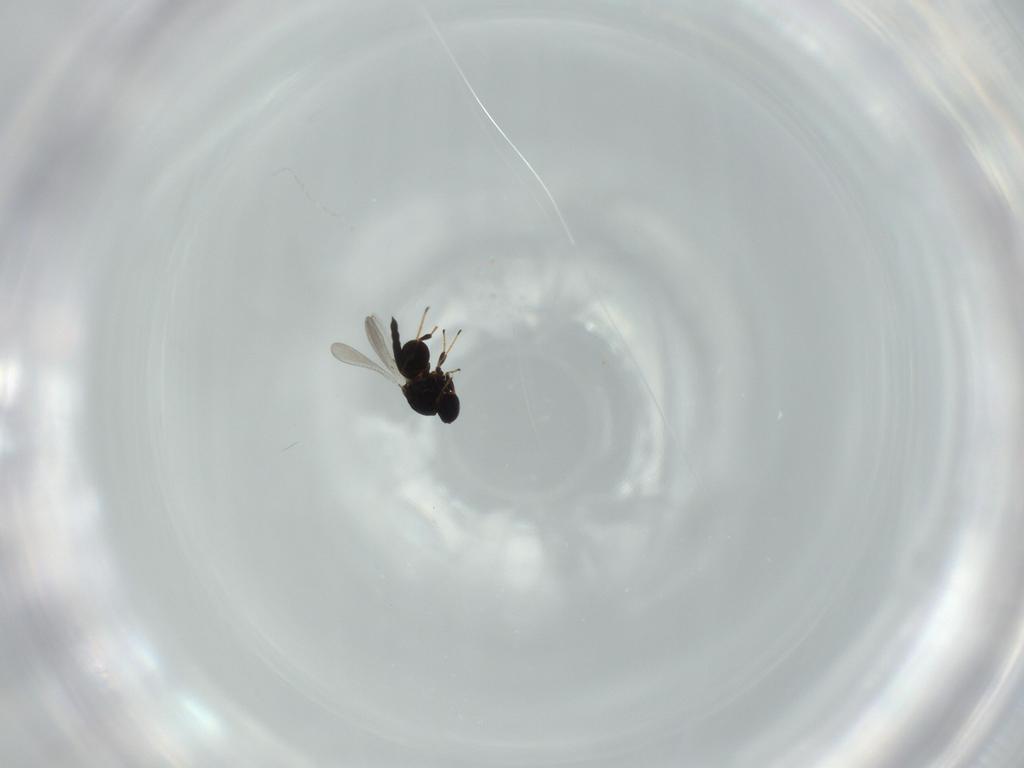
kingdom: Animalia
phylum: Arthropoda
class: Insecta
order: Hymenoptera
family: Platygastridae
